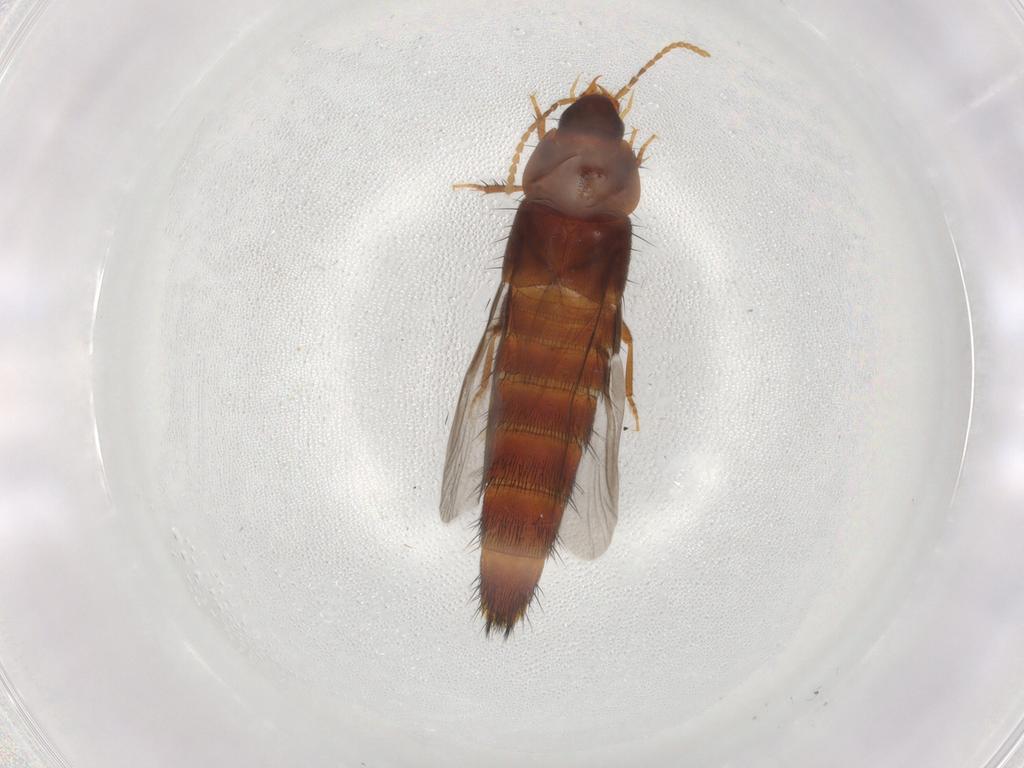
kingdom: Animalia
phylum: Arthropoda
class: Insecta
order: Coleoptera
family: Staphylinidae
